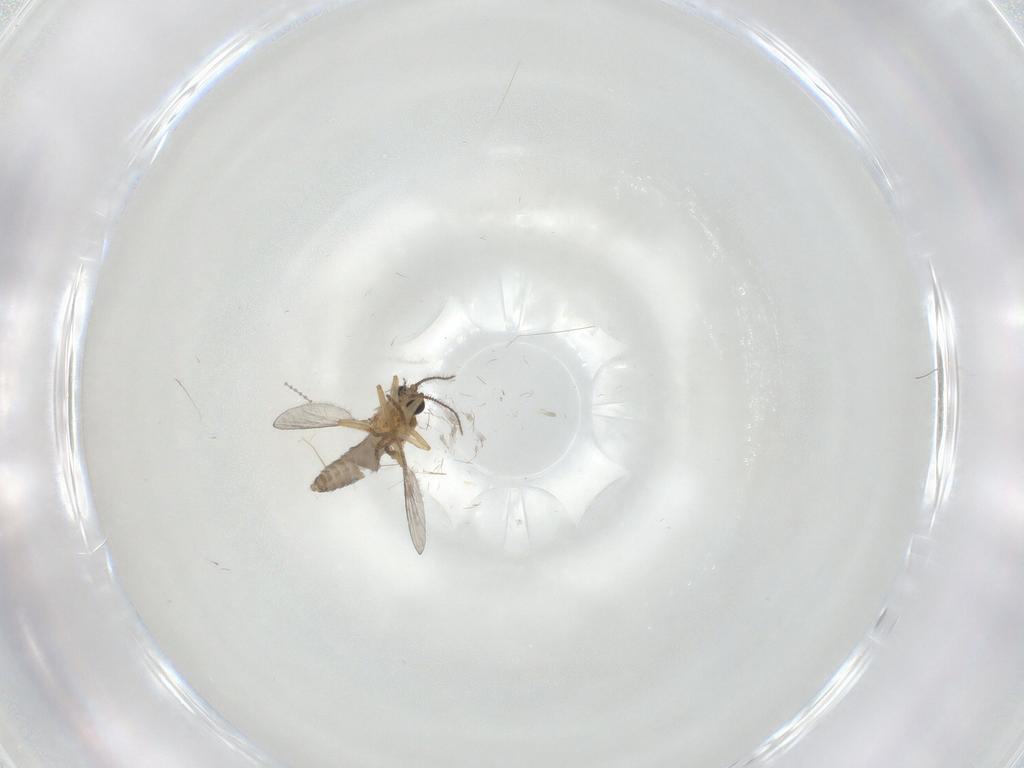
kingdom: Animalia
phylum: Arthropoda
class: Insecta
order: Diptera
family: Ceratopogonidae
